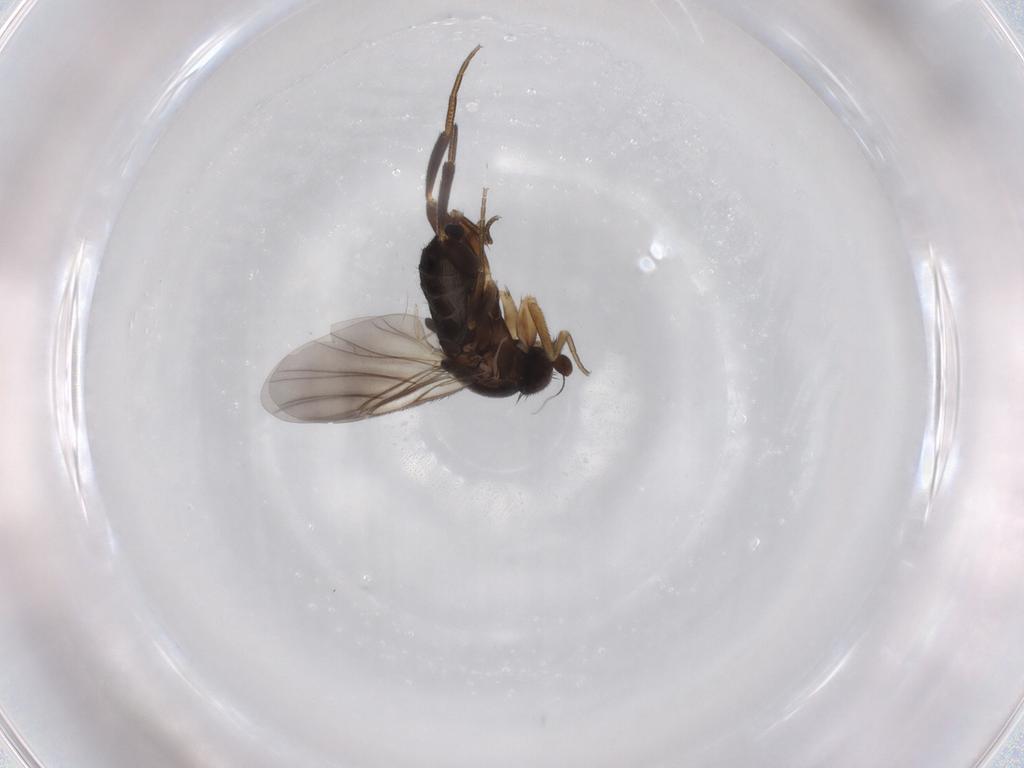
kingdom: Animalia
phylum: Arthropoda
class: Insecta
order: Diptera
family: Phoridae
